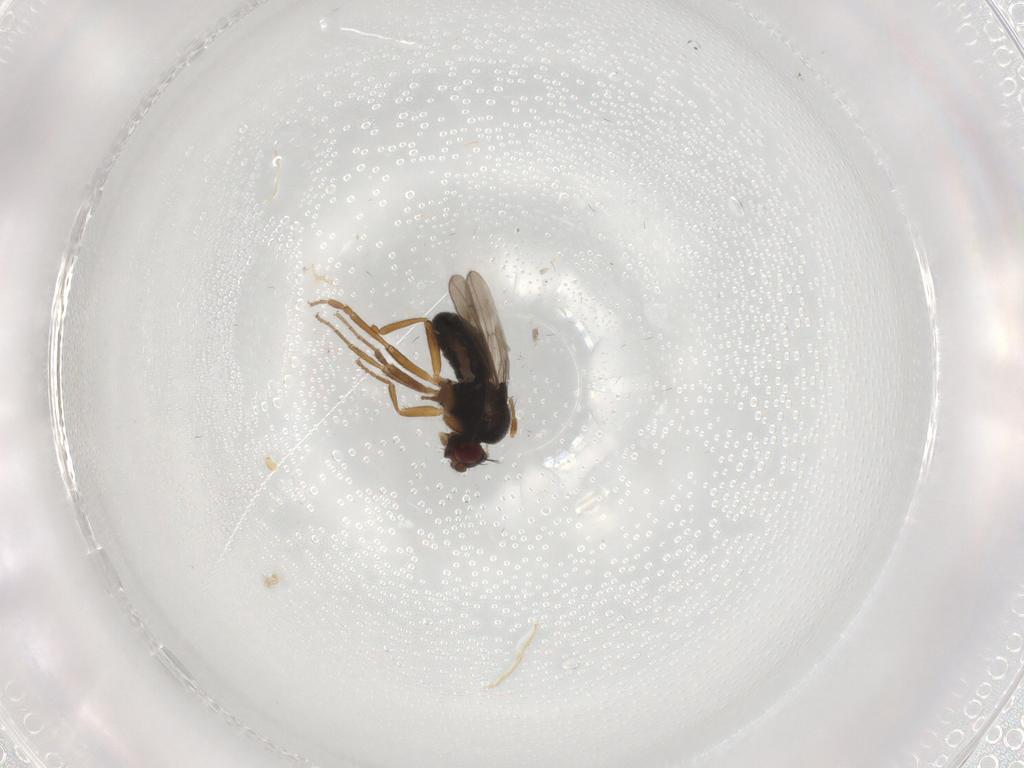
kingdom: Animalia
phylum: Arthropoda
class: Insecta
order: Diptera
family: Sphaeroceridae
